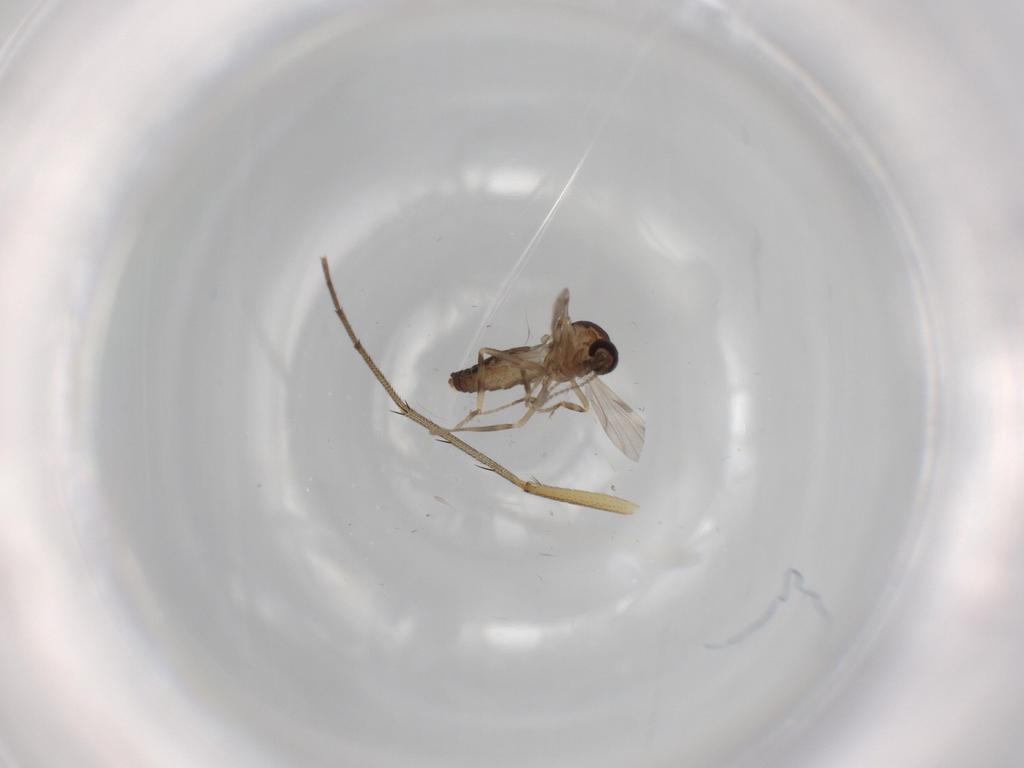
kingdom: Animalia
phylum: Arthropoda
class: Insecta
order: Diptera
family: Ceratopogonidae
